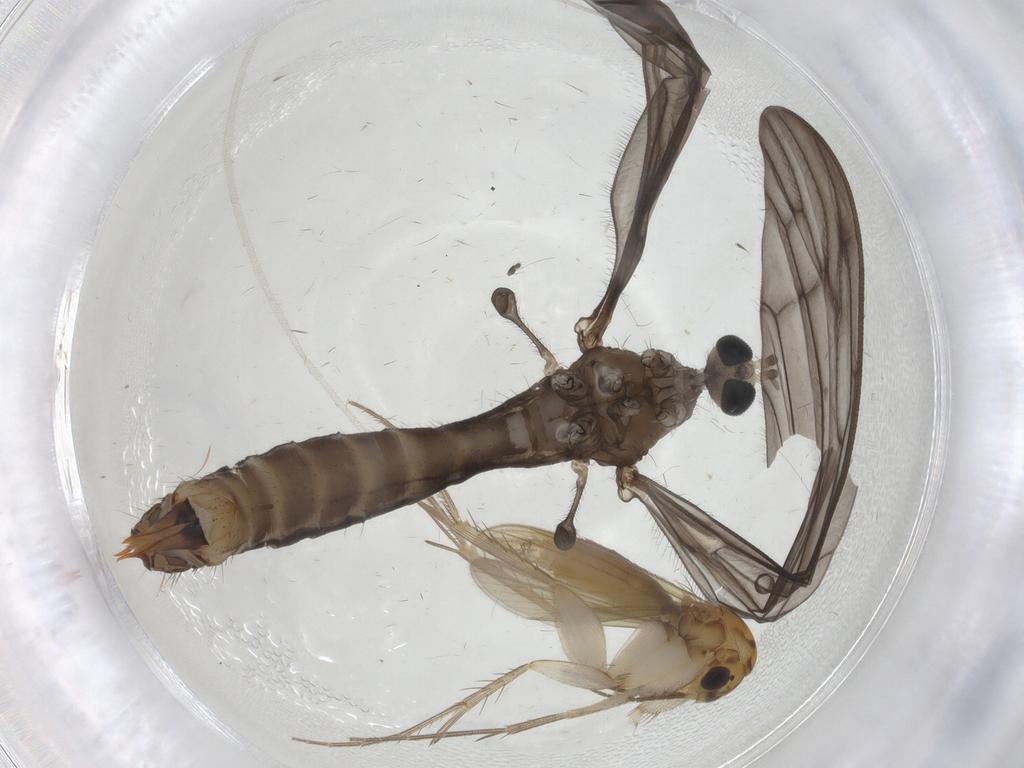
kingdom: Animalia
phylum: Arthropoda
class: Insecta
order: Diptera
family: Phoridae
